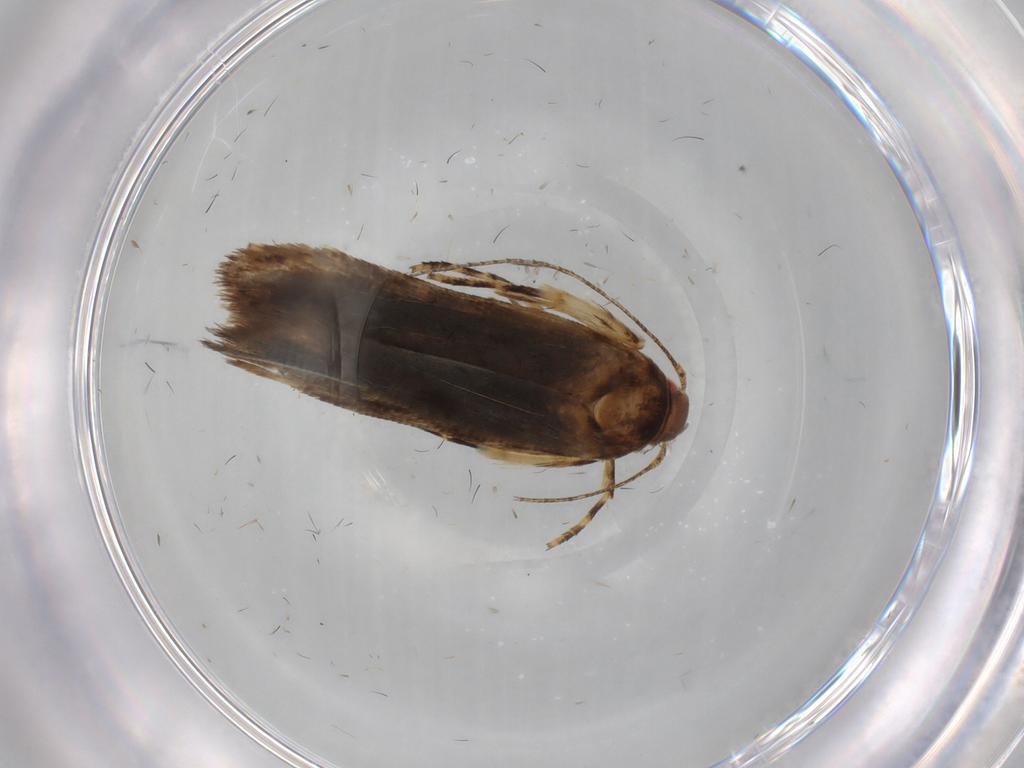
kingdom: Animalia
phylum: Arthropoda
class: Insecta
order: Lepidoptera
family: Gelechiidae
